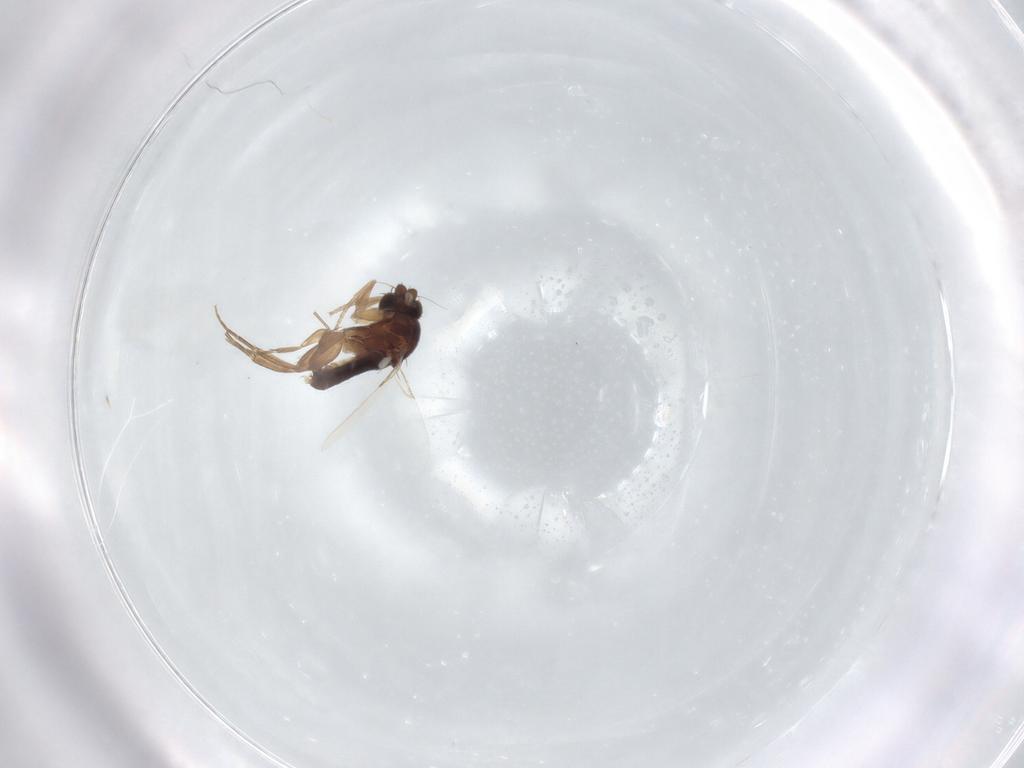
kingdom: Animalia
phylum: Arthropoda
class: Insecta
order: Diptera
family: Phoridae
